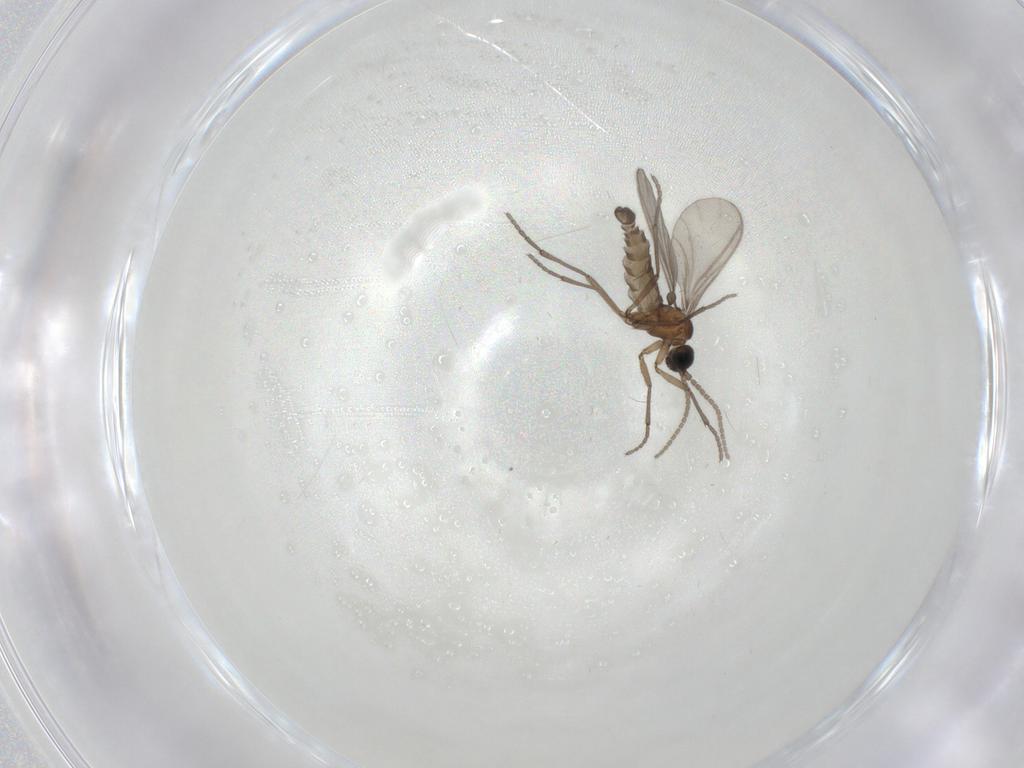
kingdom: Animalia
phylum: Arthropoda
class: Insecta
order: Diptera
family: Sciaridae
